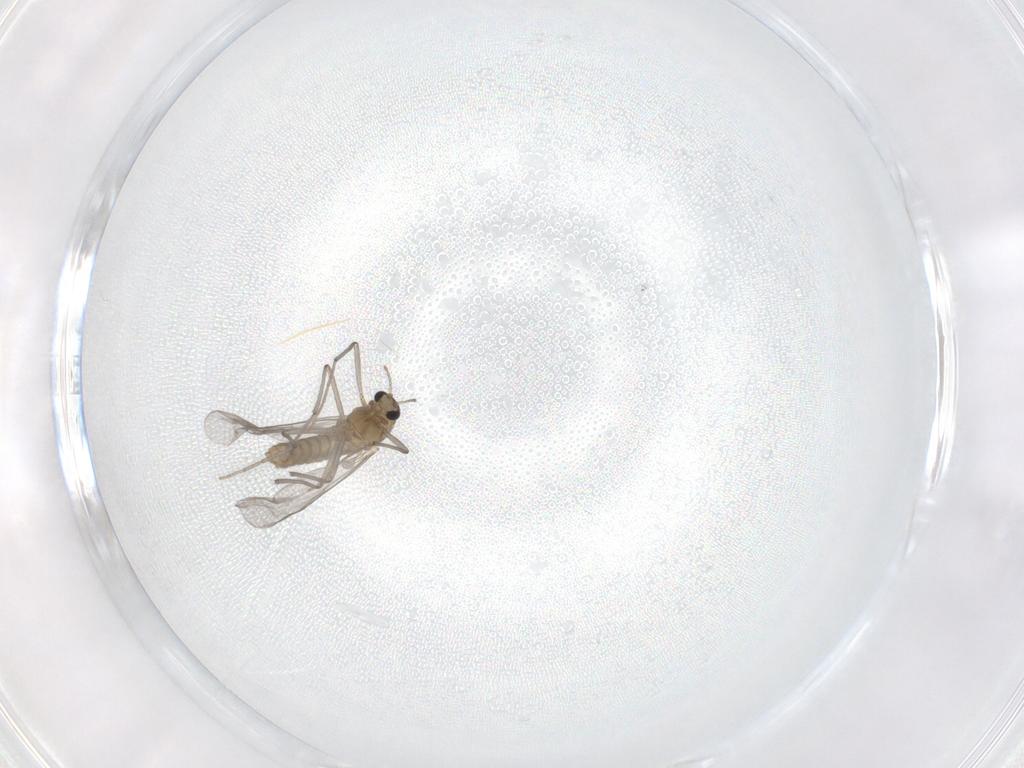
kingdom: Animalia
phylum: Arthropoda
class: Insecta
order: Diptera
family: Chironomidae
